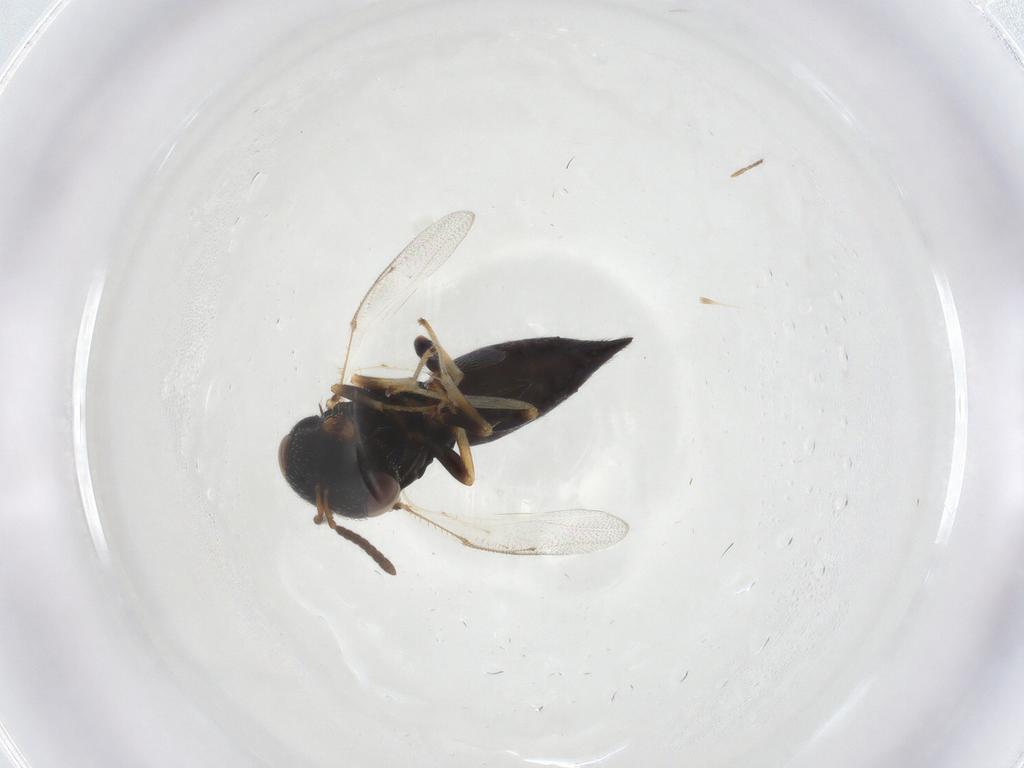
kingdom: Animalia
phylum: Arthropoda
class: Insecta
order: Hymenoptera
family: Pteromalidae
